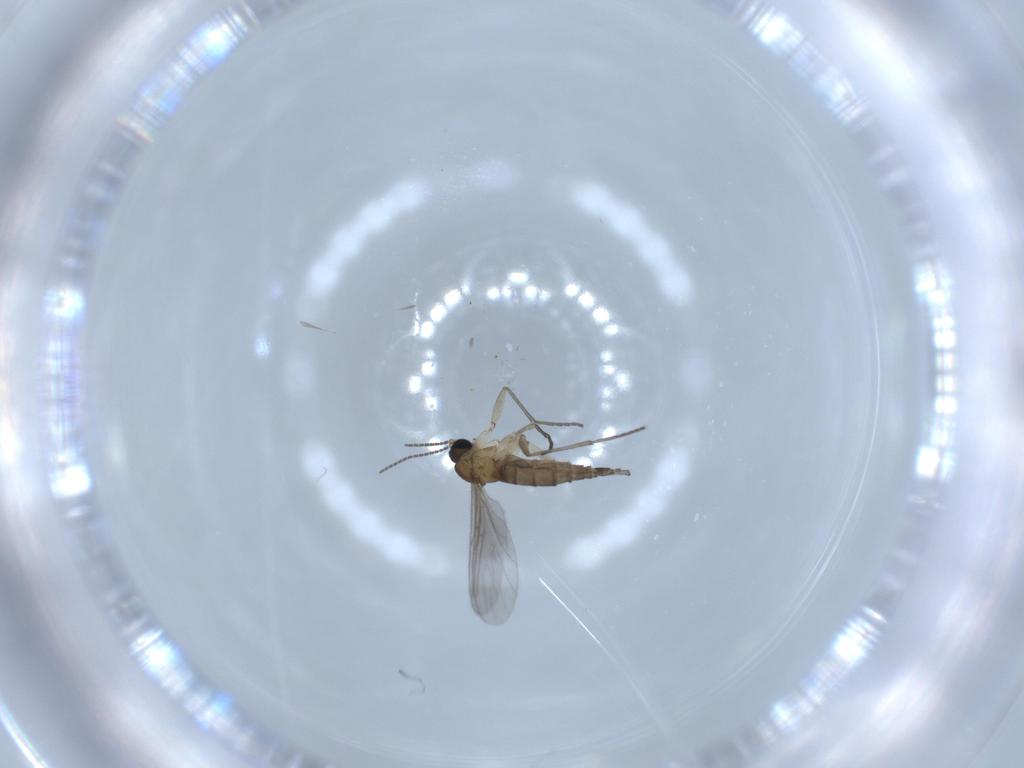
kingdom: Animalia
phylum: Arthropoda
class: Insecta
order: Diptera
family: Sciaridae
